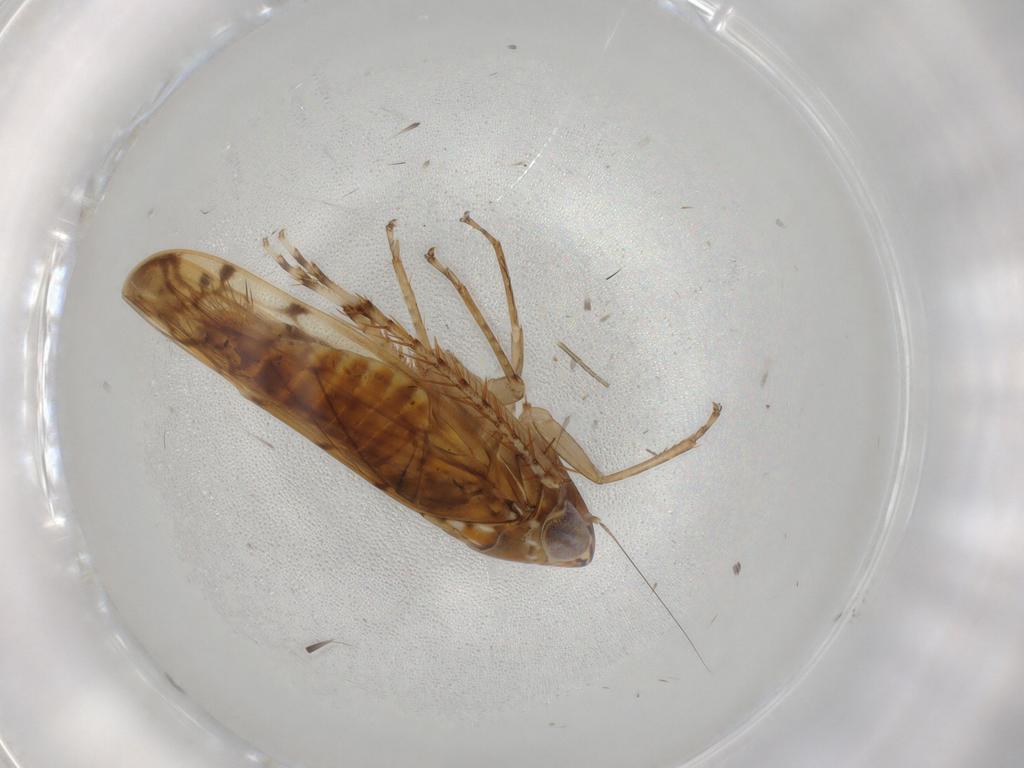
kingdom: Animalia
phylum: Arthropoda
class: Insecta
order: Hemiptera
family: Cicadellidae
